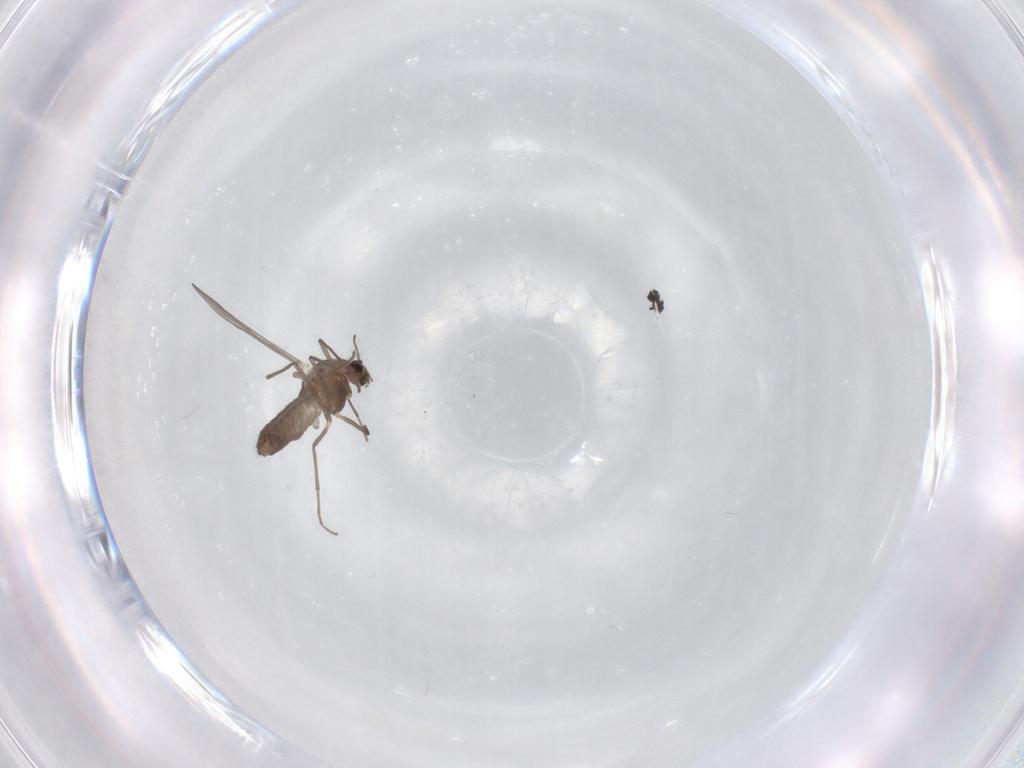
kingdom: Animalia
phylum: Arthropoda
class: Insecta
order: Diptera
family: Chironomidae
